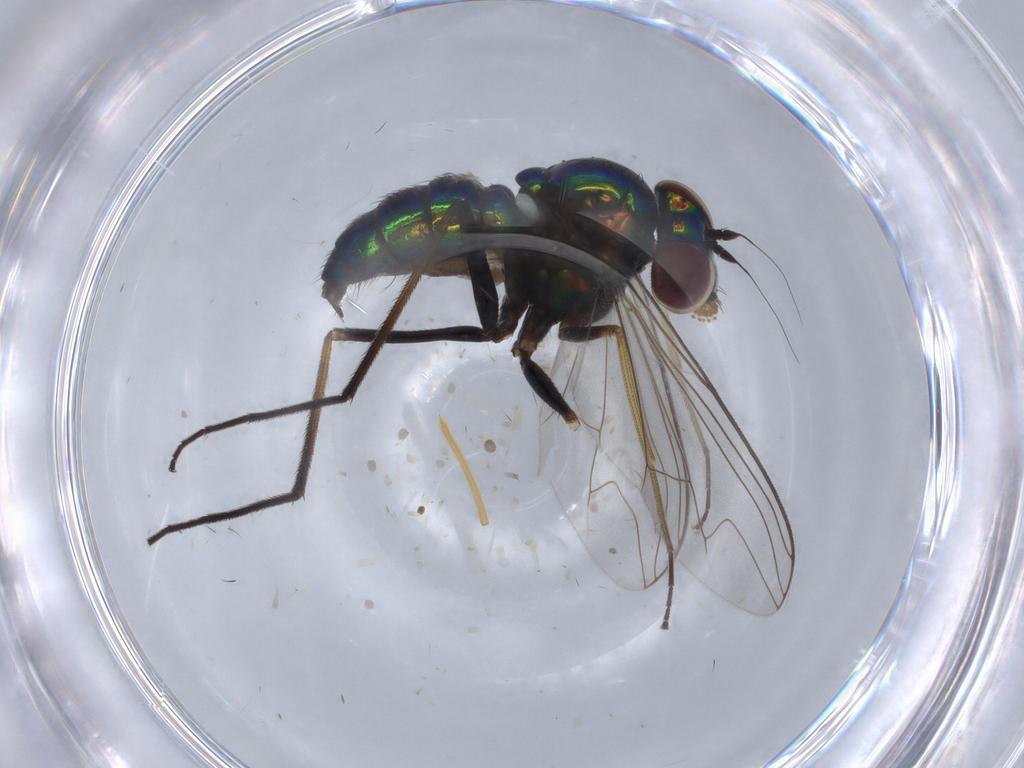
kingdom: Animalia
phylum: Arthropoda
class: Insecta
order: Diptera
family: Dolichopodidae
